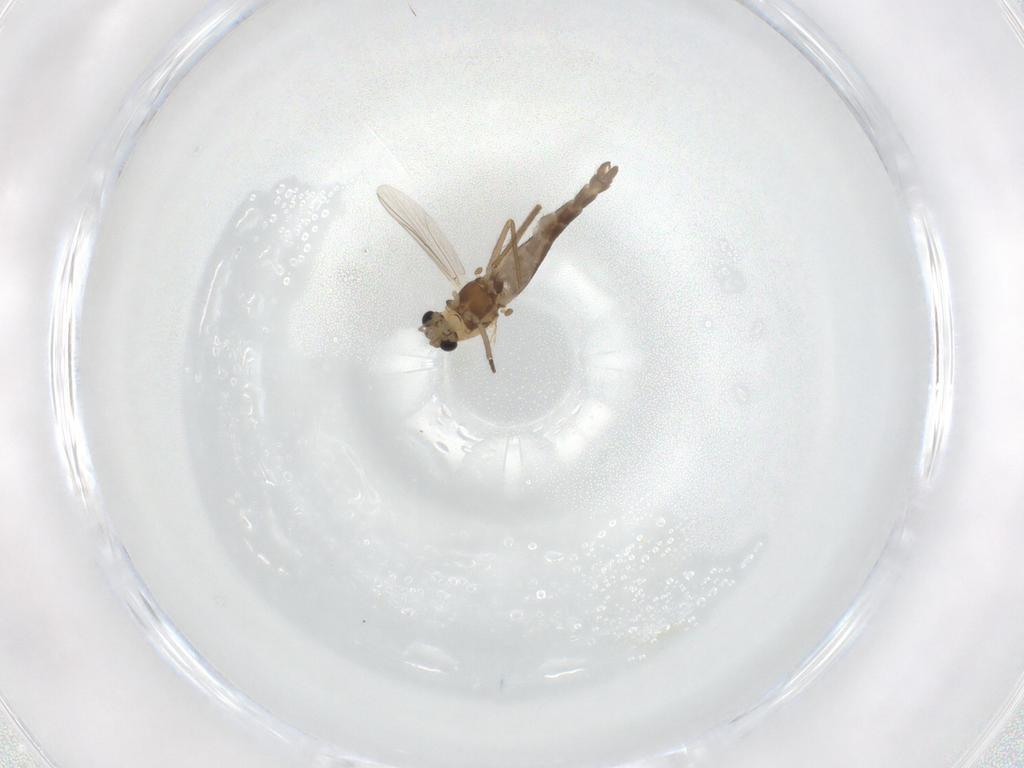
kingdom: Animalia
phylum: Arthropoda
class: Insecta
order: Diptera
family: Chironomidae
